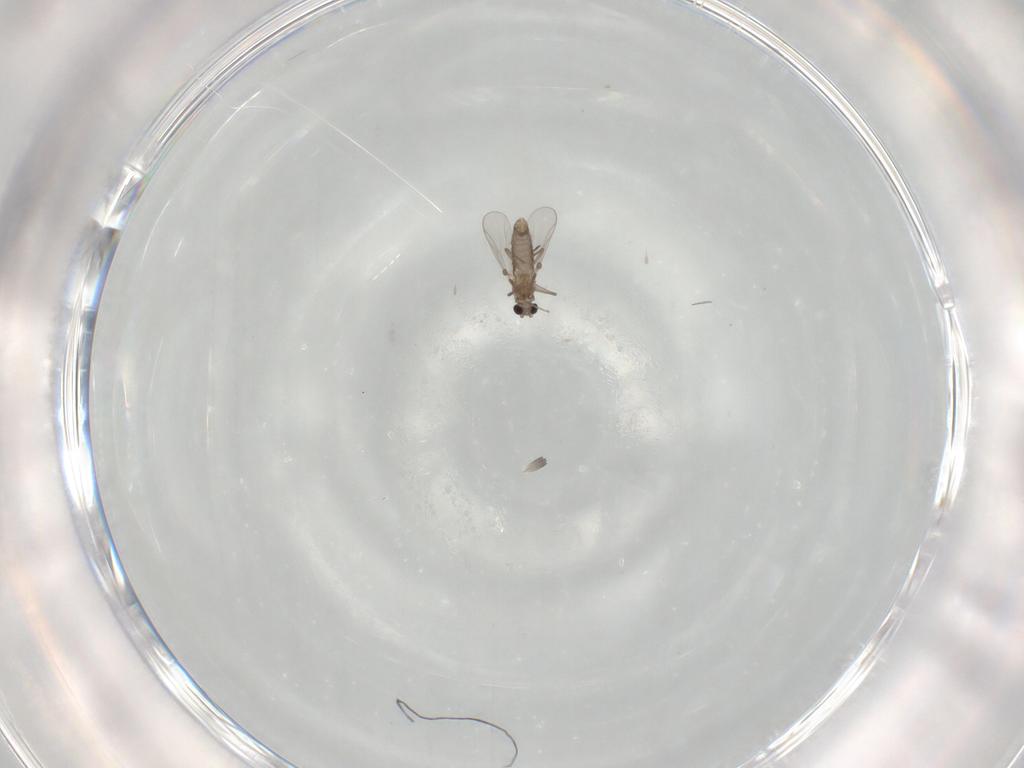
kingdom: Animalia
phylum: Arthropoda
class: Insecta
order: Diptera
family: Chironomidae
